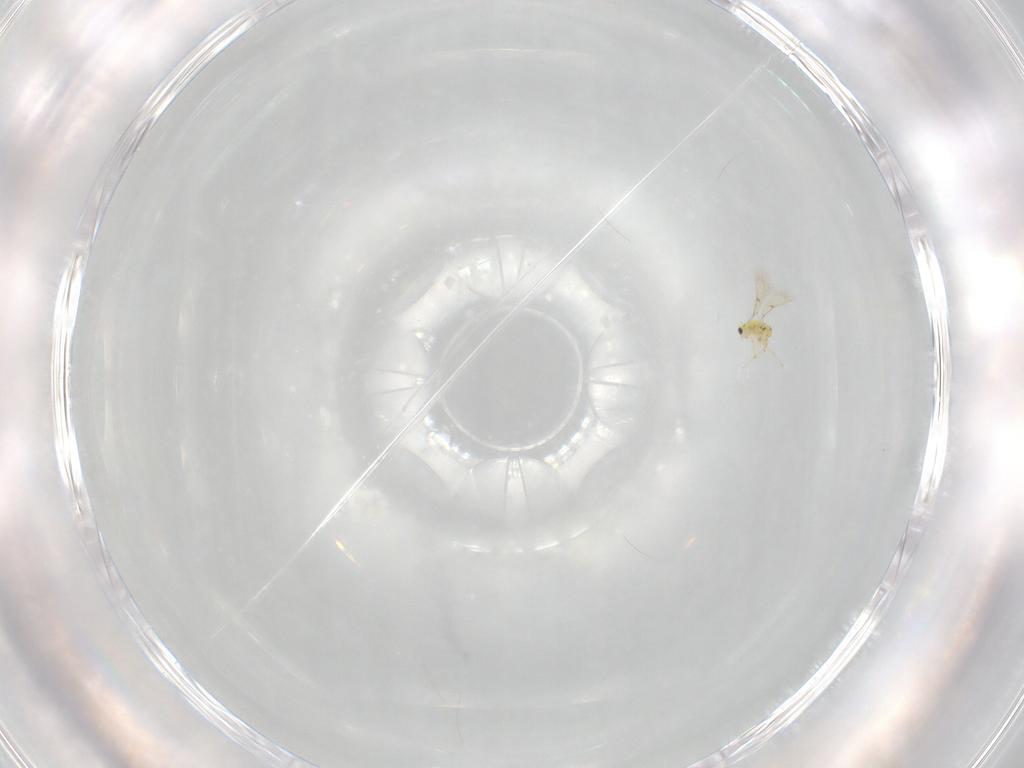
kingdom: Animalia
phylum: Arthropoda
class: Insecta
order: Hymenoptera
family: Trichogrammatidae
